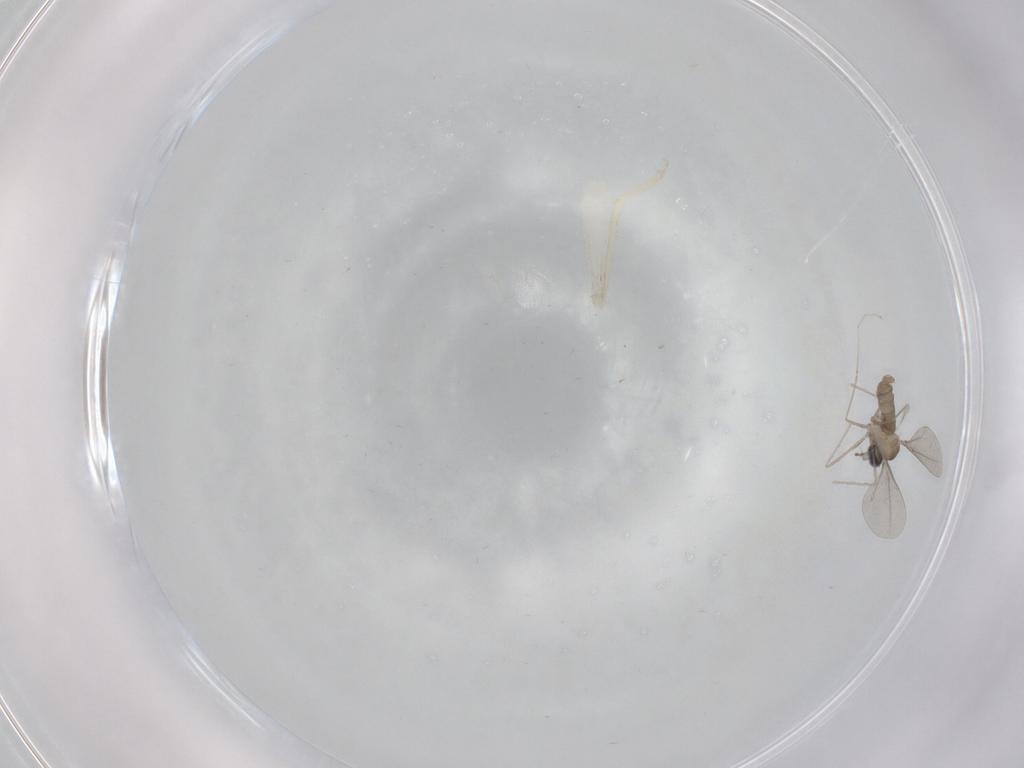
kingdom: Animalia
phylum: Arthropoda
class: Insecta
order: Diptera
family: Cecidomyiidae
